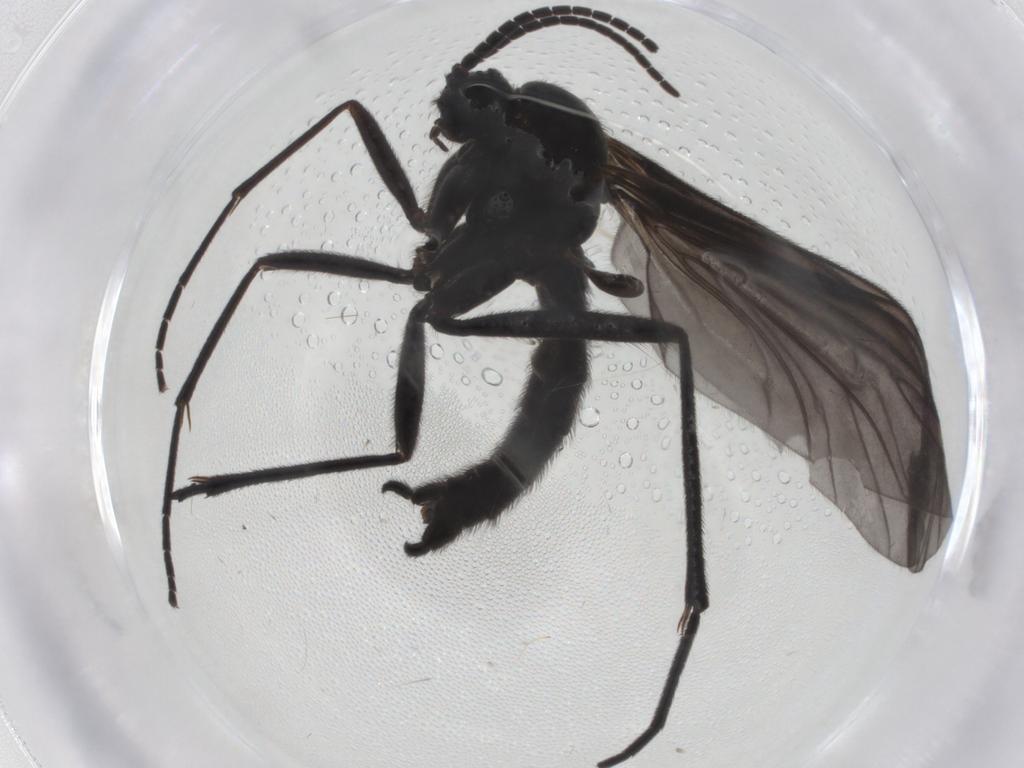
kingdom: Animalia
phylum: Arthropoda
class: Insecta
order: Diptera
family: Sciaridae
